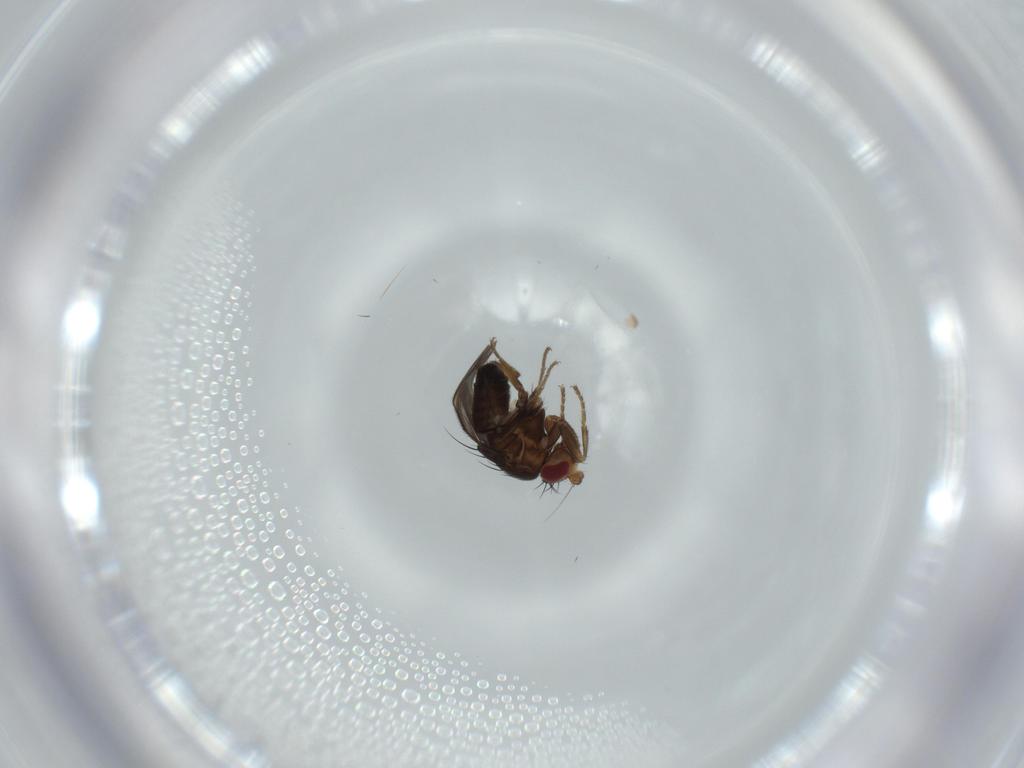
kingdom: Animalia
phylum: Arthropoda
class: Insecta
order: Diptera
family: Sphaeroceridae
